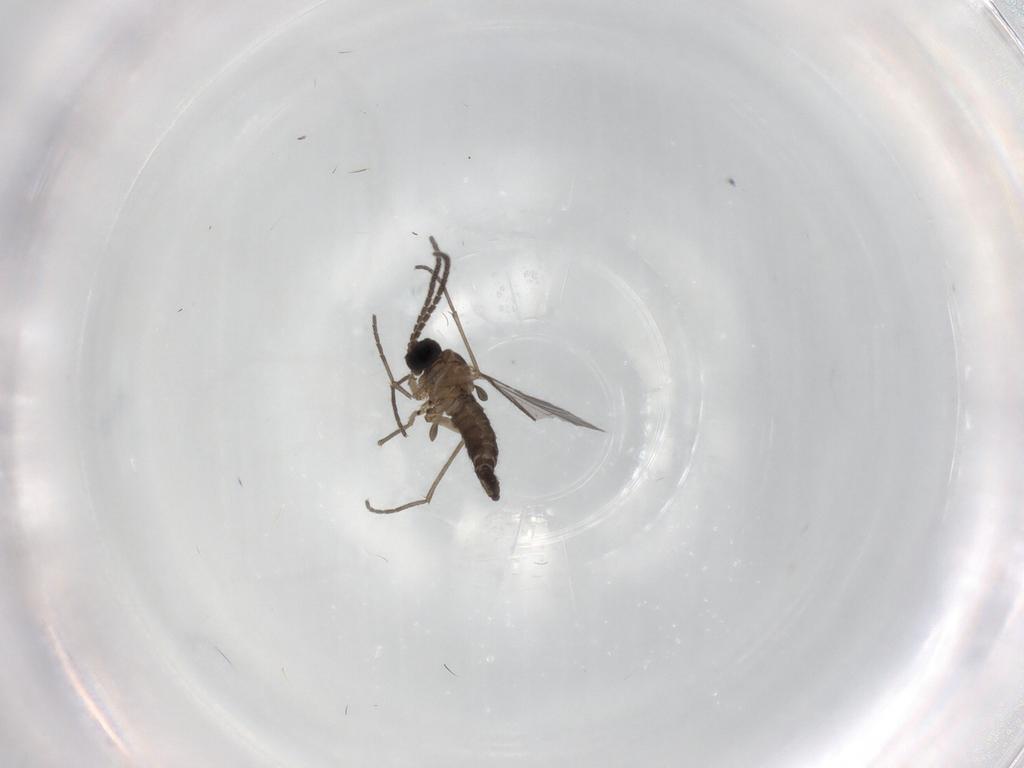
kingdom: Animalia
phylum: Arthropoda
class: Insecta
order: Diptera
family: Sciaridae
